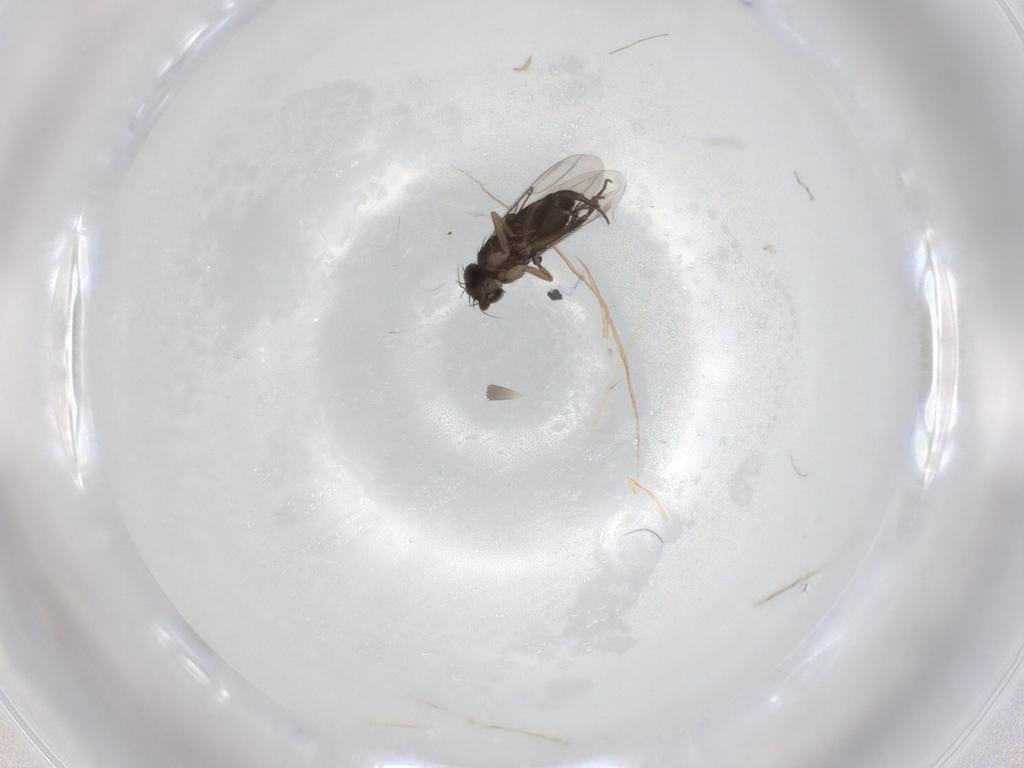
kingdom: Animalia
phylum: Arthropoda
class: Insecta
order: Diptera
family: Phoridae
